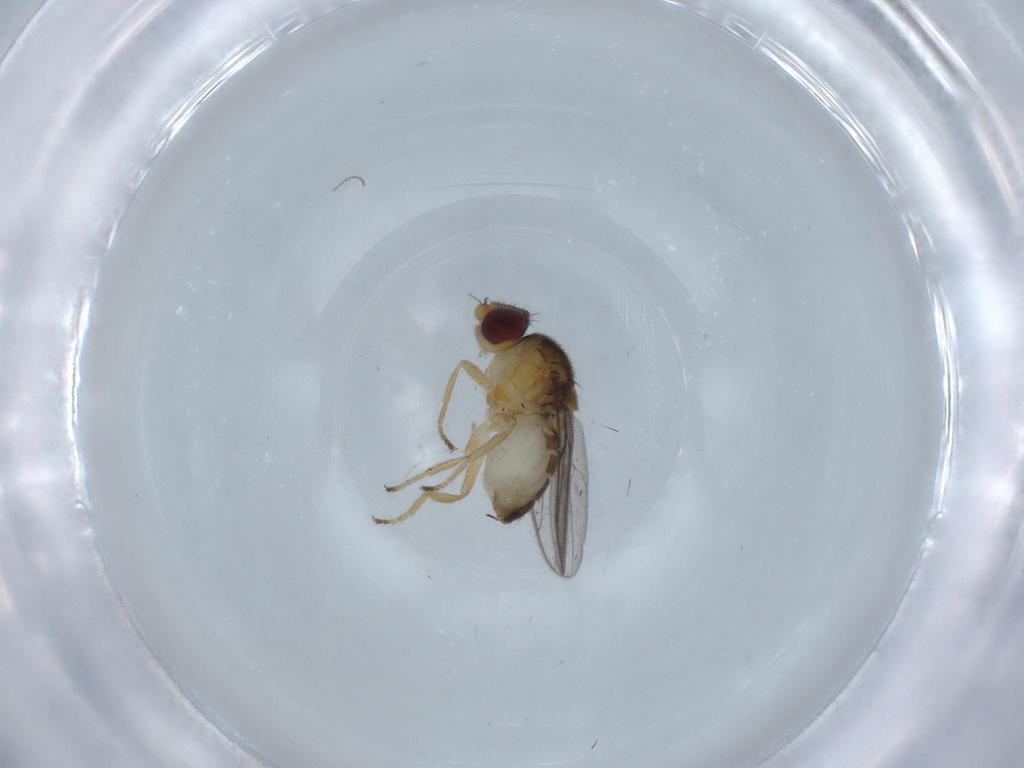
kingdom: Animalia
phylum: Arthropoda
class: Insecta
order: Diptera
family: Chloropidae
